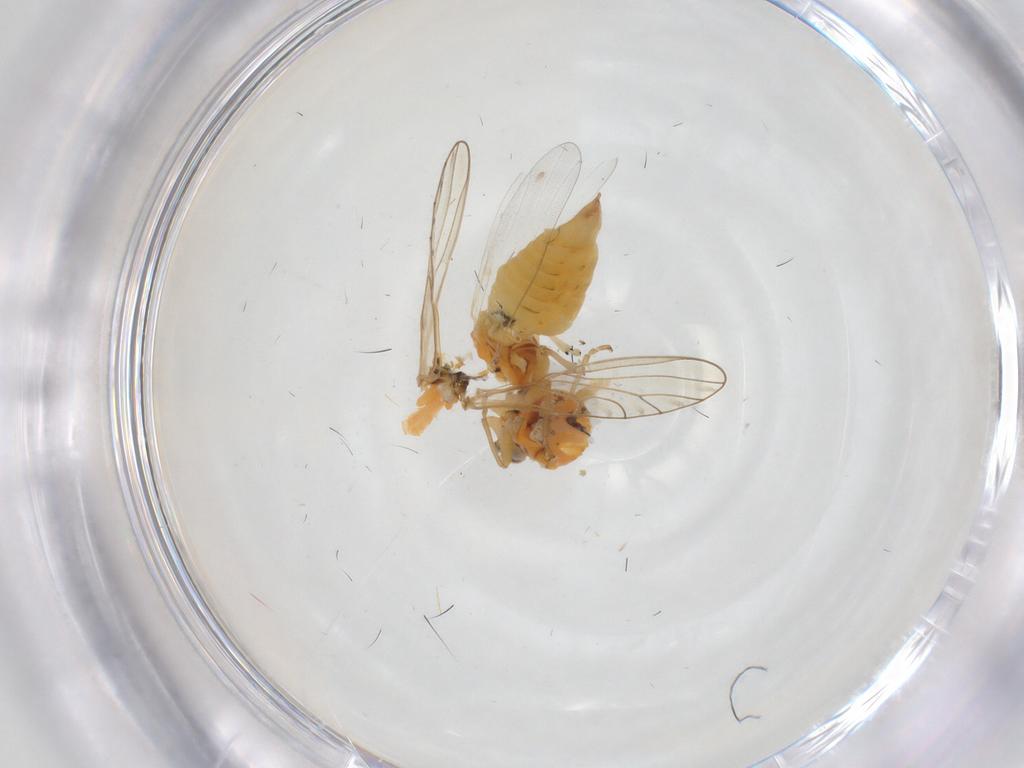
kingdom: Animalia
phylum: Arthropoda
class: Insecta
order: Diptera
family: Agromyzidae
